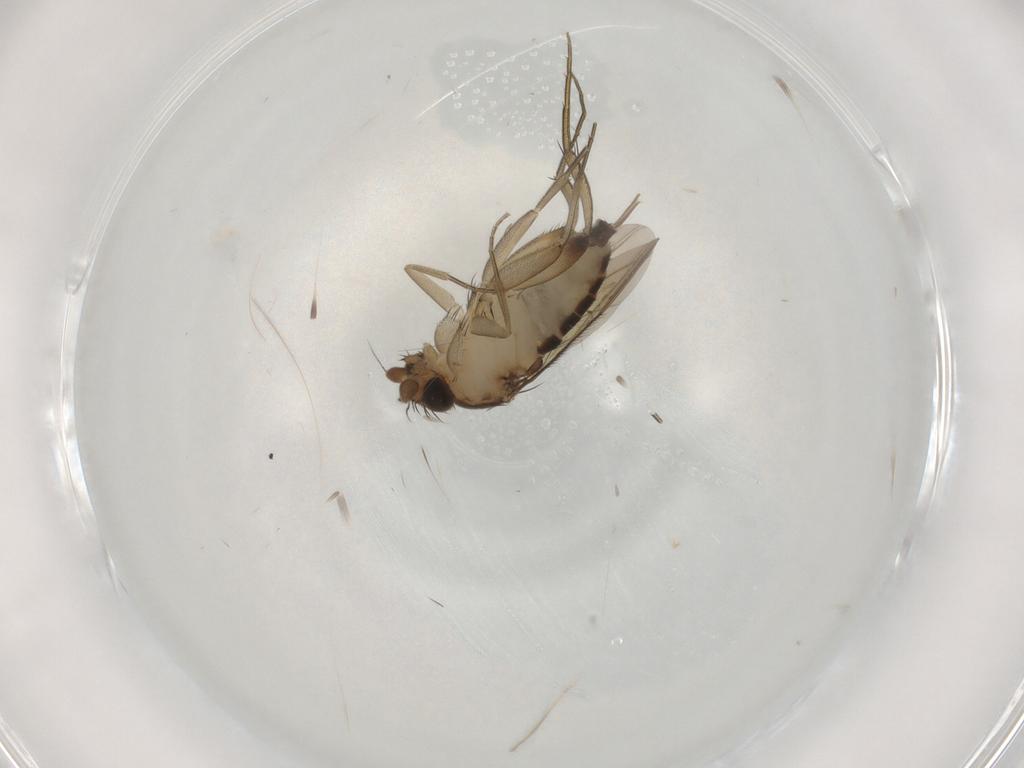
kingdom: Animalia
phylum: Arthropoda
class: Insecta
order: Diptera
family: Phoridae
